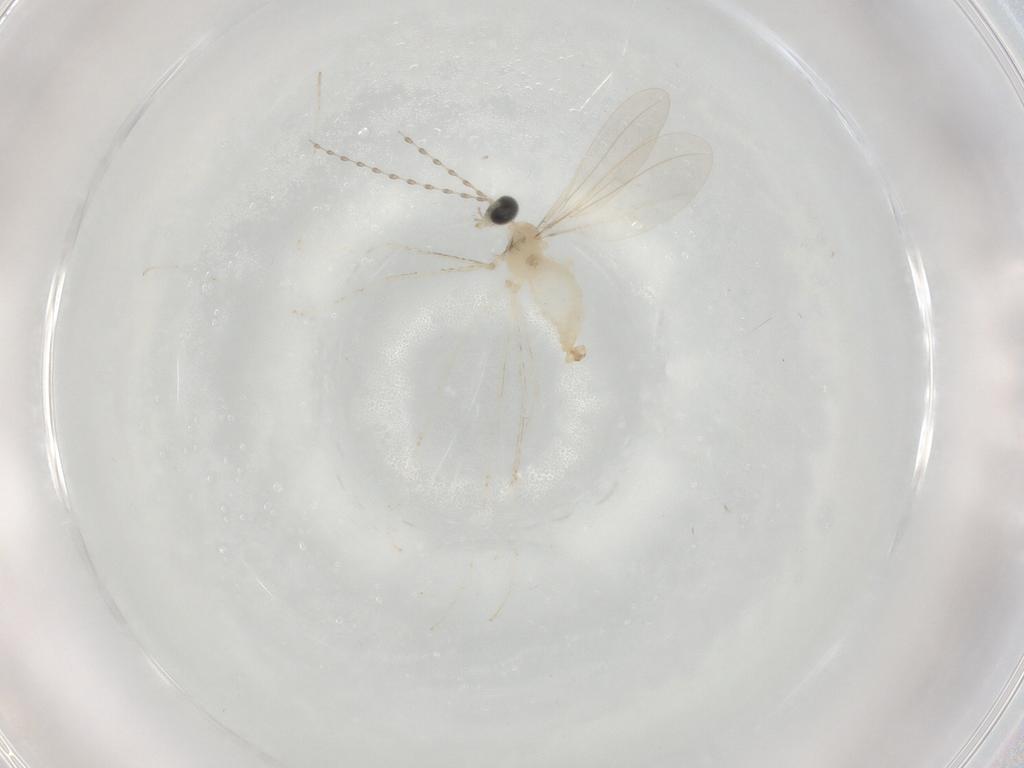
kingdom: Animalia
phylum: Arthropoda
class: Insecta
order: Diptera
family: Cecidomyiidae
